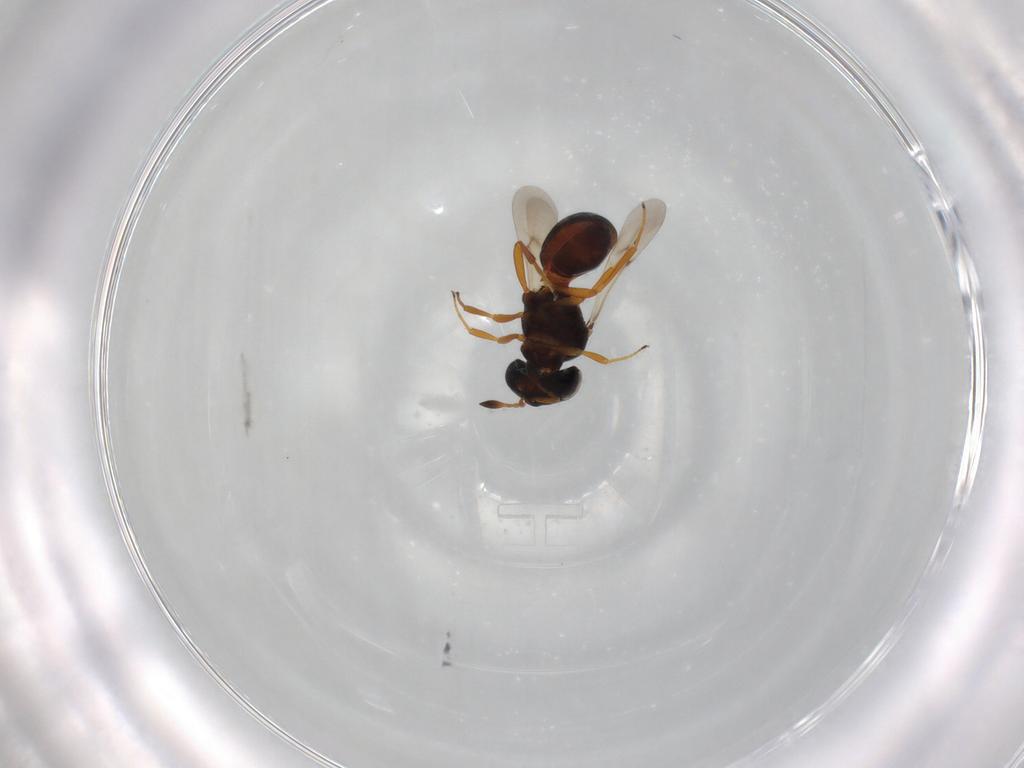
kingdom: Animalia
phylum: Arthropoda
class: Insecta
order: Hymenoptera
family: Scelionidae
